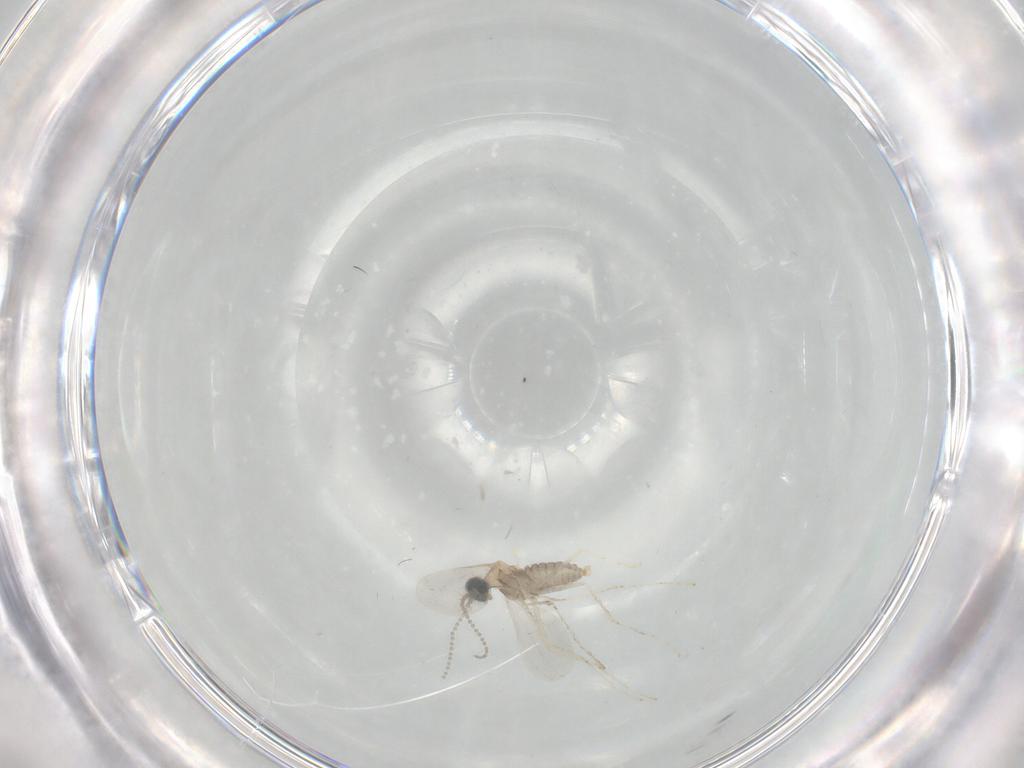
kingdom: Animalia
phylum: Arthropoda
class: Insecta
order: Diptera
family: Cecidomyiidae
